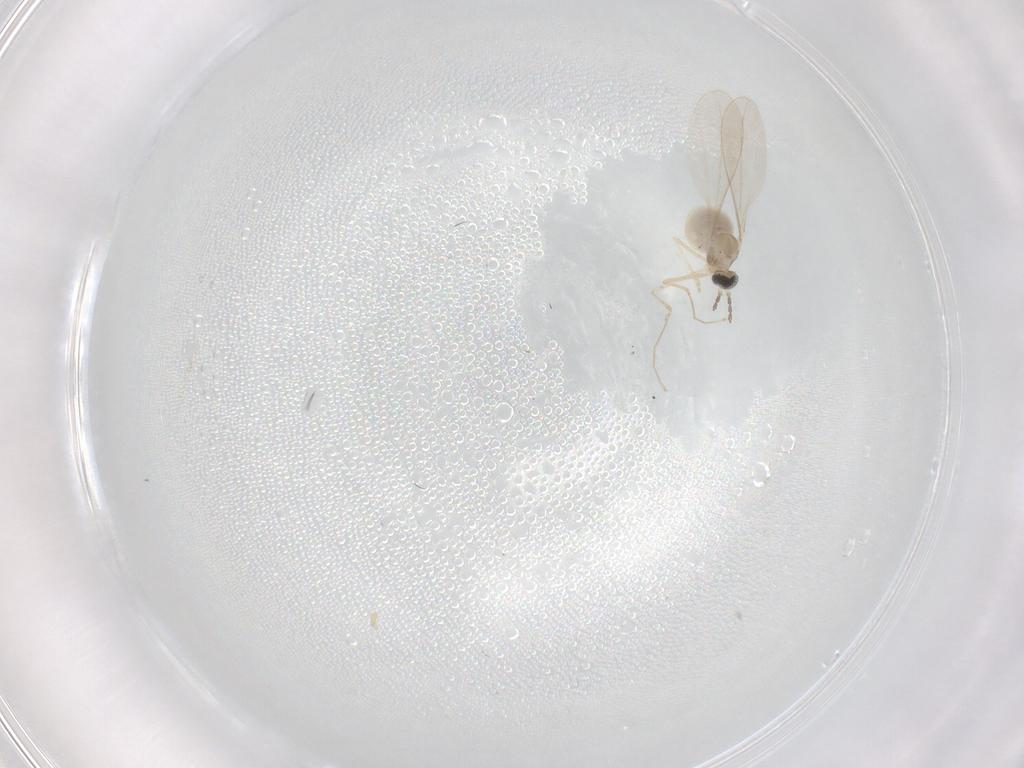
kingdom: Animalia
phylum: Arthropoda
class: Insecta
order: Diptera
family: Cecidomyiidae
